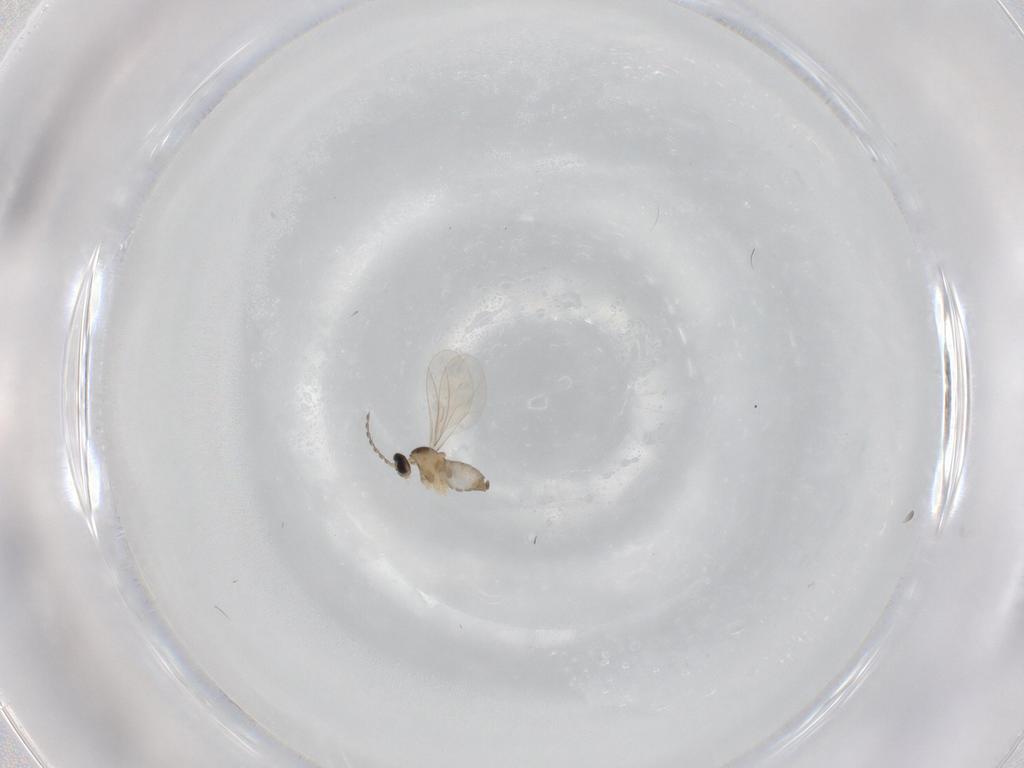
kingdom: Animalia
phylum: Arthropoda
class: Insecta
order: Diptera
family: Cecidomyiidae
